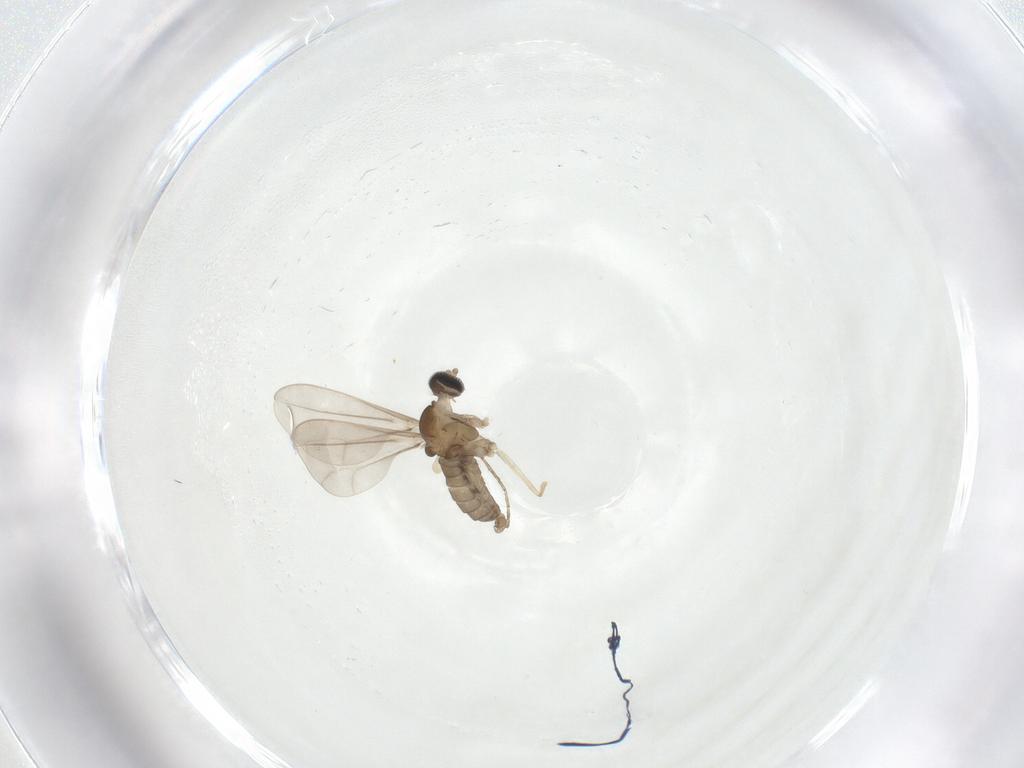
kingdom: Animalia
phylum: Arthropoda
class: Insecta
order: Diptera
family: Cecidomyiidae
